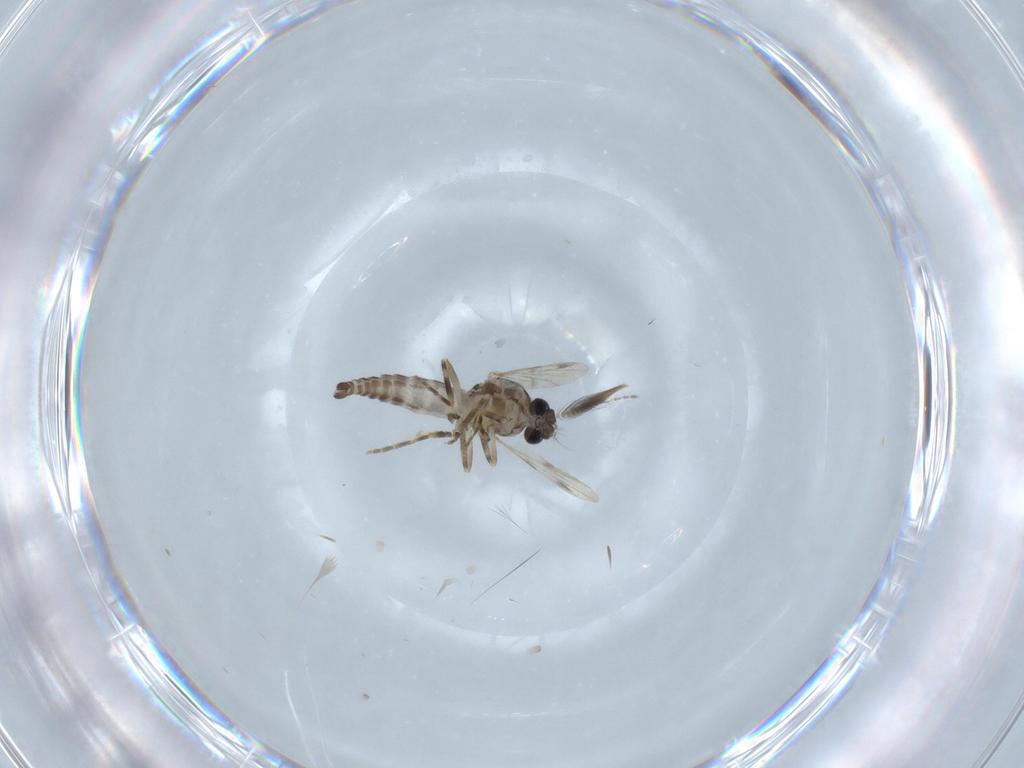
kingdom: Animalia
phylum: Arthropoda
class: Insecta
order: Diptera
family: Ceratopogonidae
